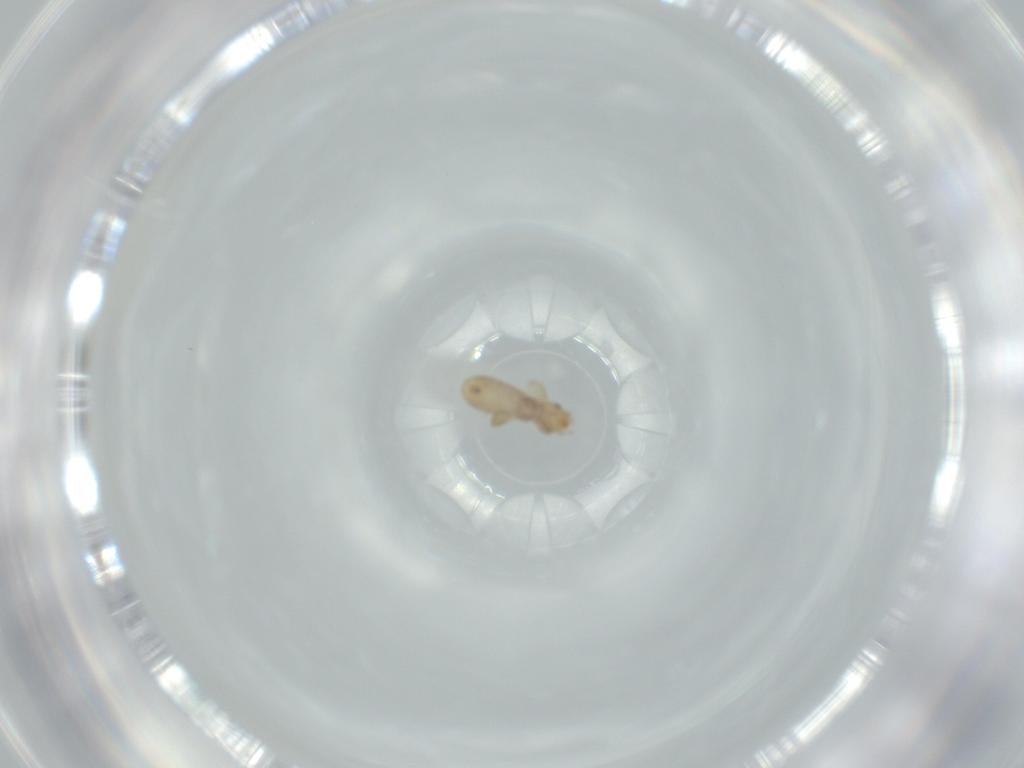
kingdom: Animalia
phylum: Arthropoda
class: Insecta
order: Psocodea
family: Liposcelididae
